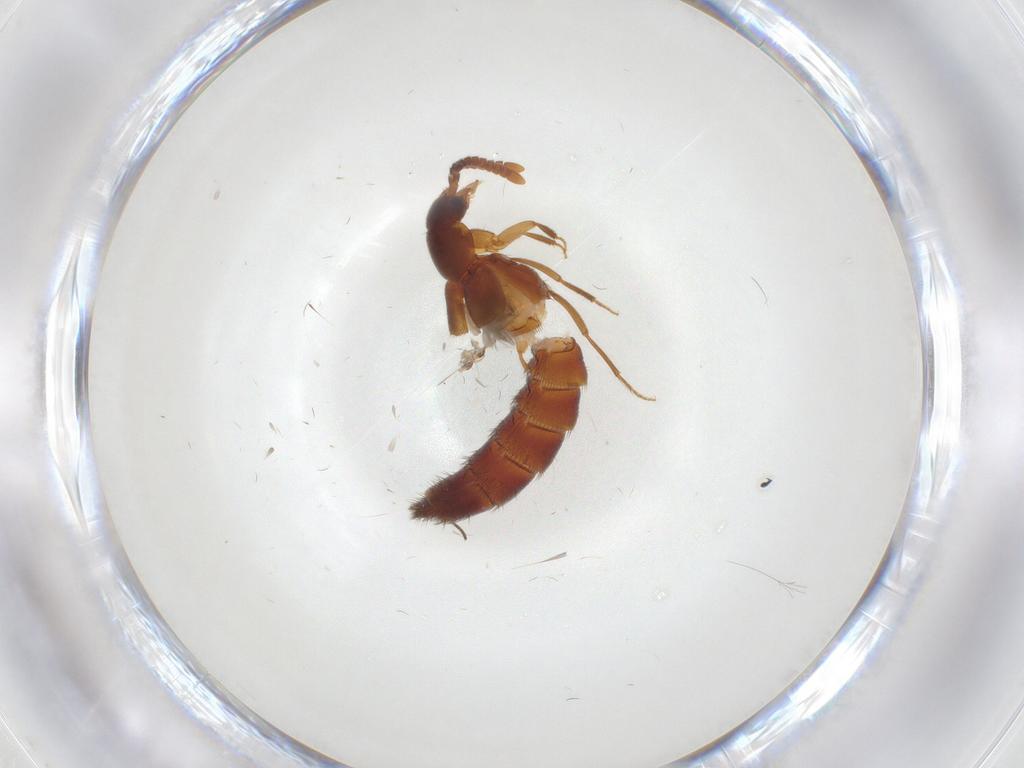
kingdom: Animalia
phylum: Arthropoda
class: Insecta
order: Coleoptera
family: Staphylinidae
